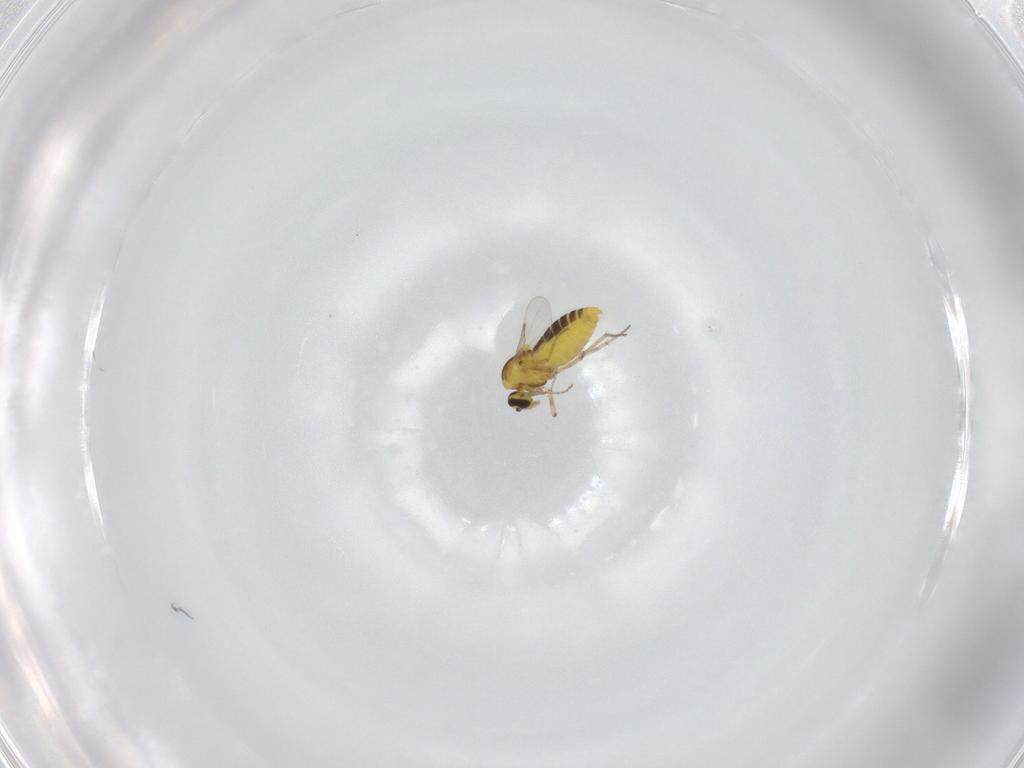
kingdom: Animalia
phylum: Arthropoda
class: Insecta
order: Diptera
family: Ceratopogonidae
